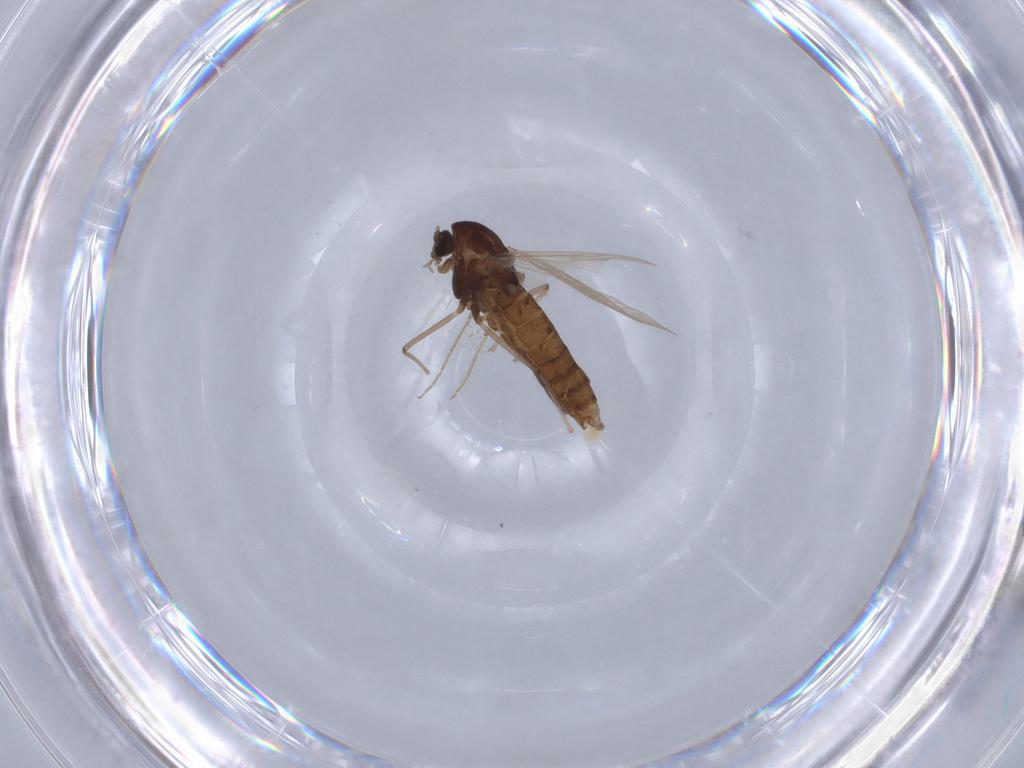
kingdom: Animalia
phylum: Arthropoda
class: Insecta
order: Diptera
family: Chironomidae
